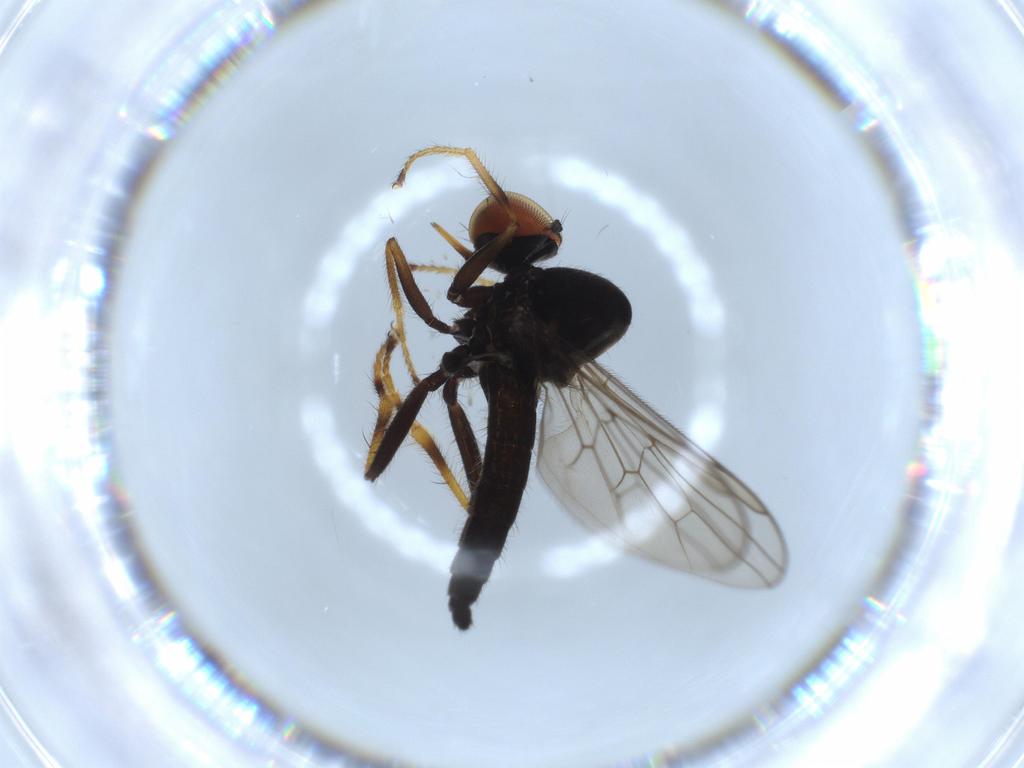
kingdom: Animalia
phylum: Arthropoda
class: Insecta
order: Diptera
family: Hybotidae
